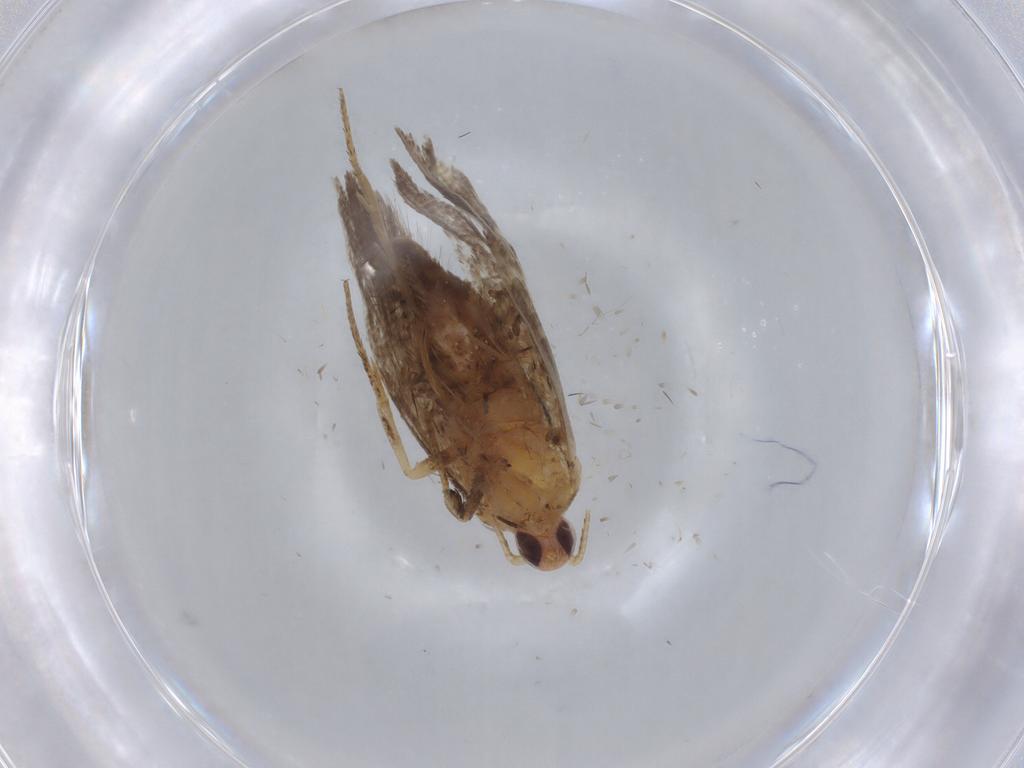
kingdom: Animalia
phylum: Arthropoda
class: Insecta
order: Lepidoptera
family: Ypsolophidae
